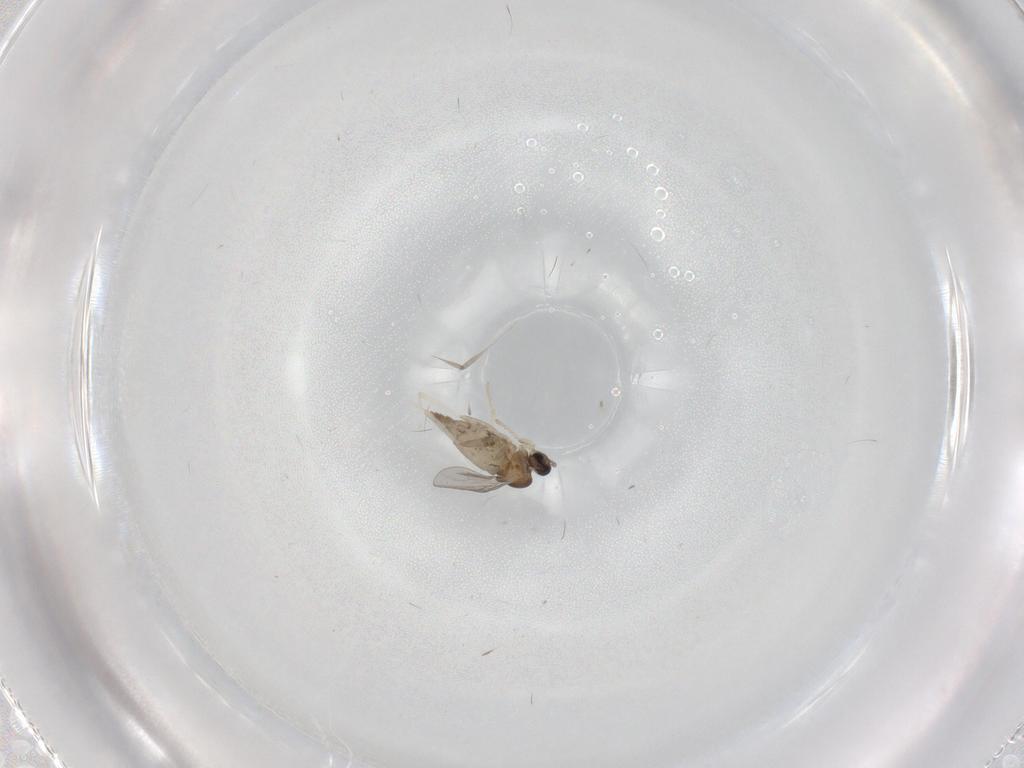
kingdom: Animalia
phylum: Arthropoda
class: Insecta
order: Diptera
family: Cecidomyiidae
